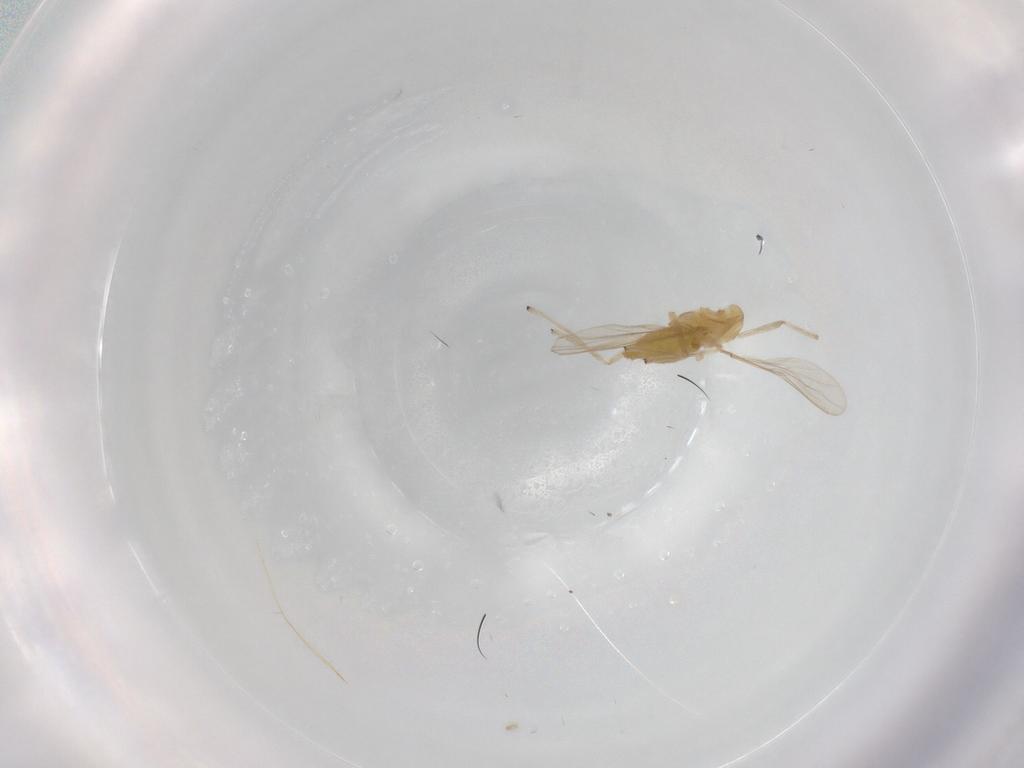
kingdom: Animalia
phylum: Arthropoda
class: Insecta
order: Diptera
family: Chironomidae
